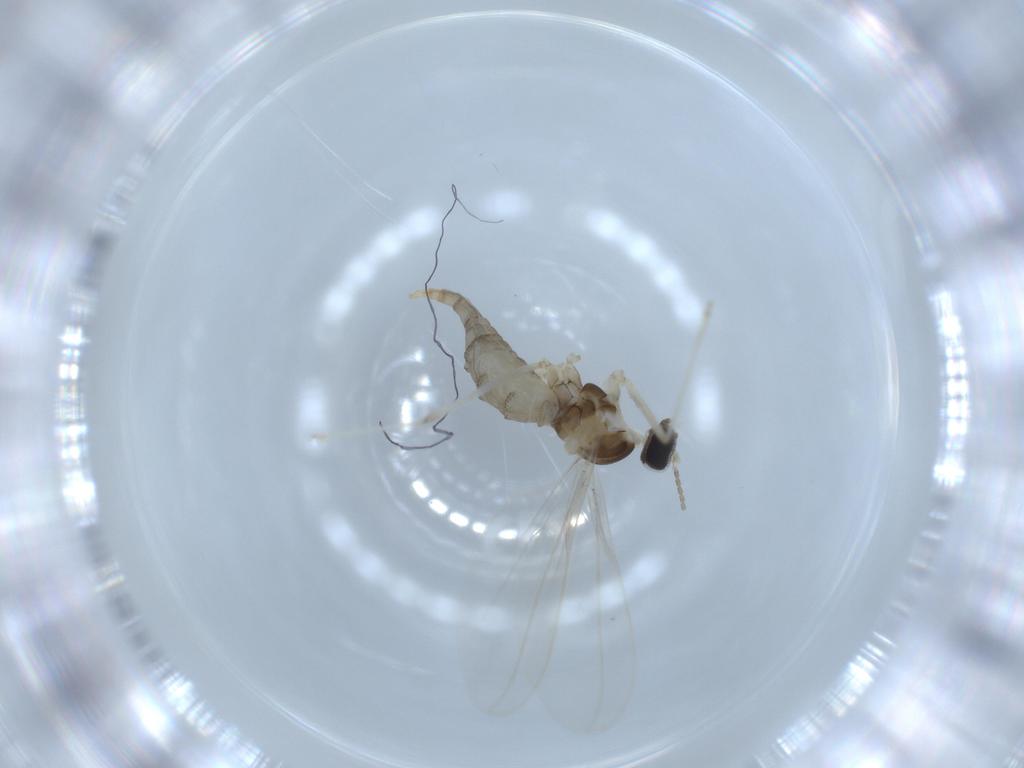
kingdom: Animalia
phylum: Arthropoda
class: Insecta
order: Diptera
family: Cecidomyiidae
